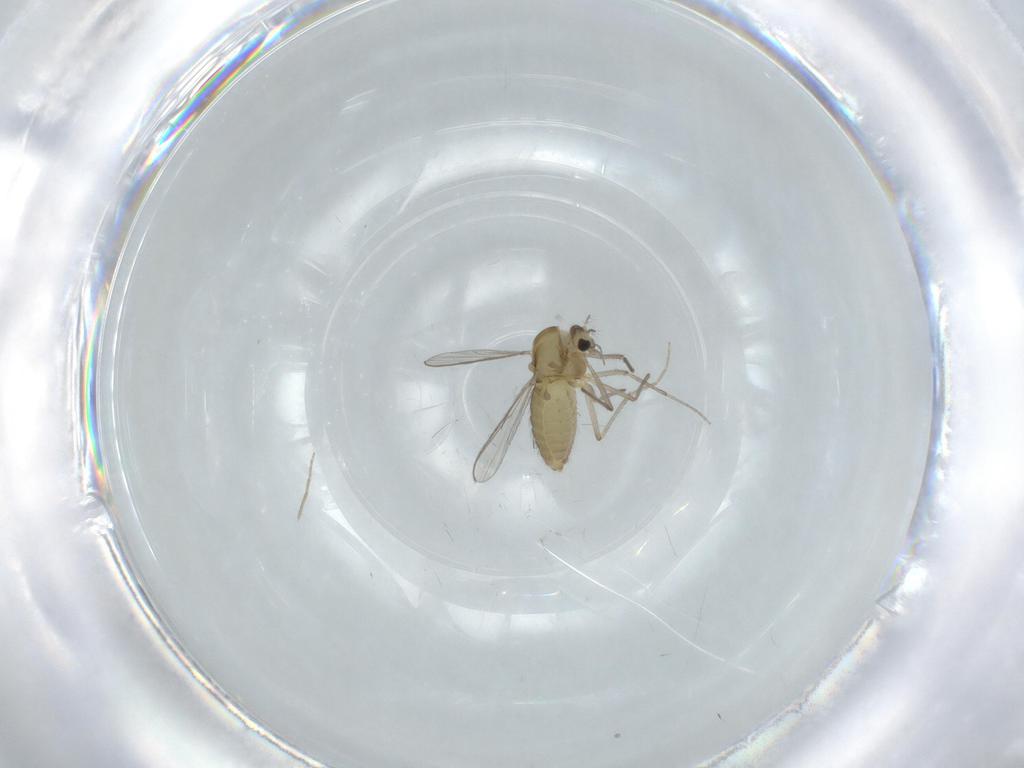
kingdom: Animalia
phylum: Arthropoda
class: Insecta
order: Diptera
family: Chironomidae
